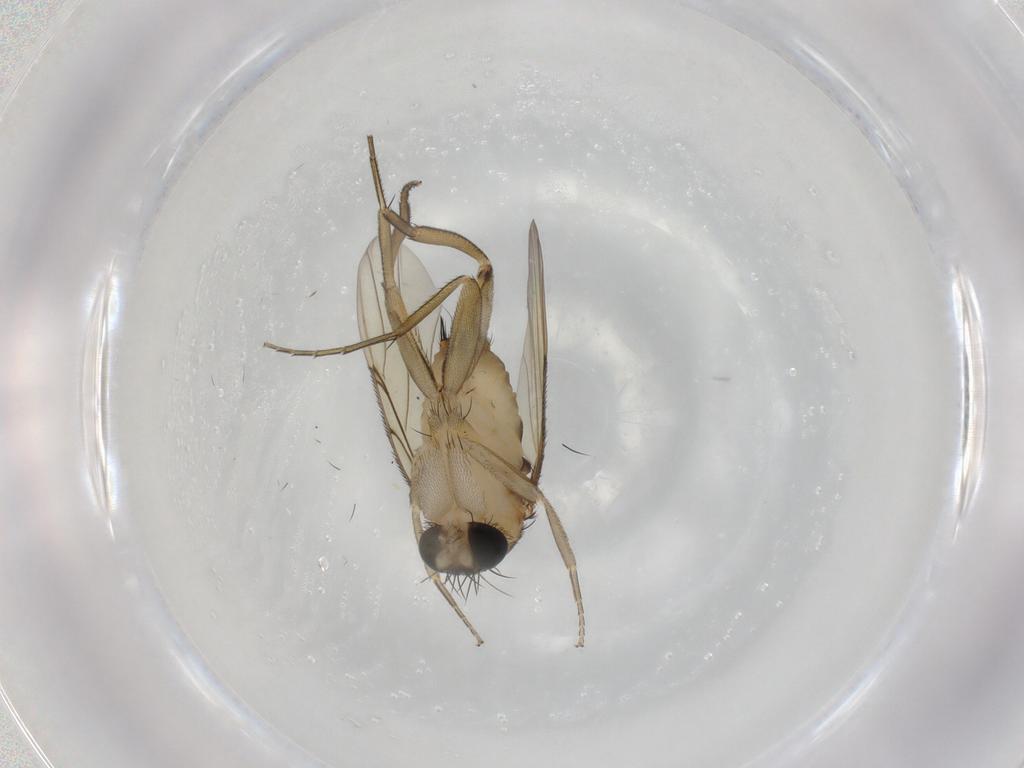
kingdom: Animalia
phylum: Arthropoda
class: Insecta
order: Diptera
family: Phoridae
